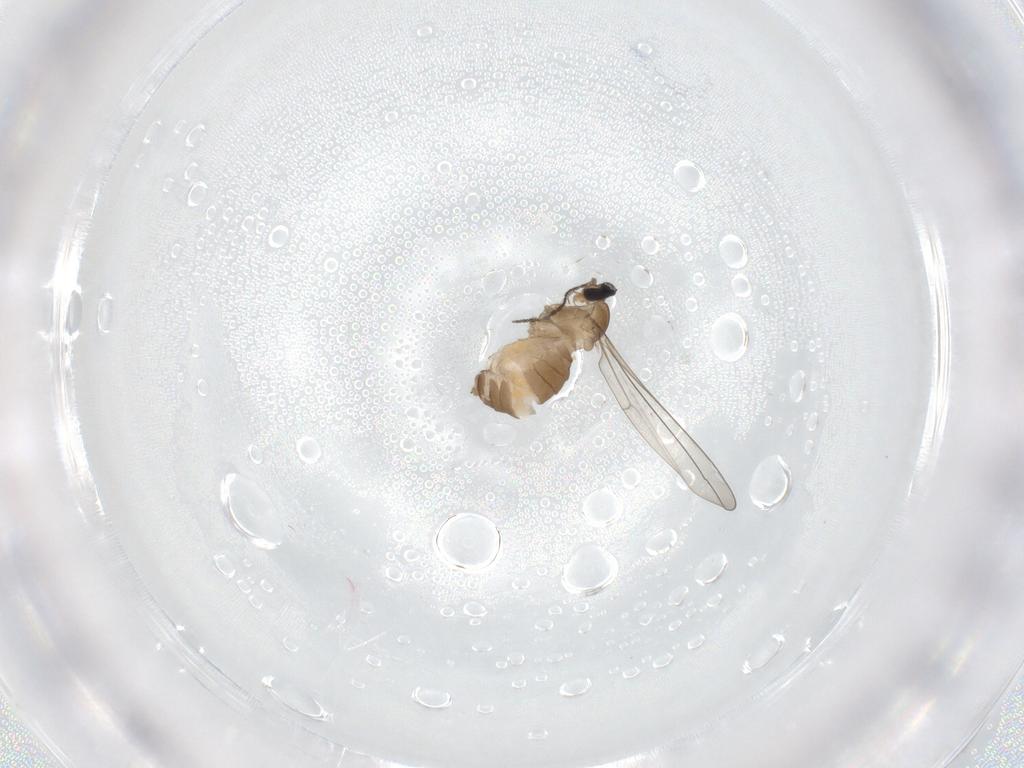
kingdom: Animalia
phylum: Arthropoda
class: Insecta
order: Diptera
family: Cecidomyiidae
